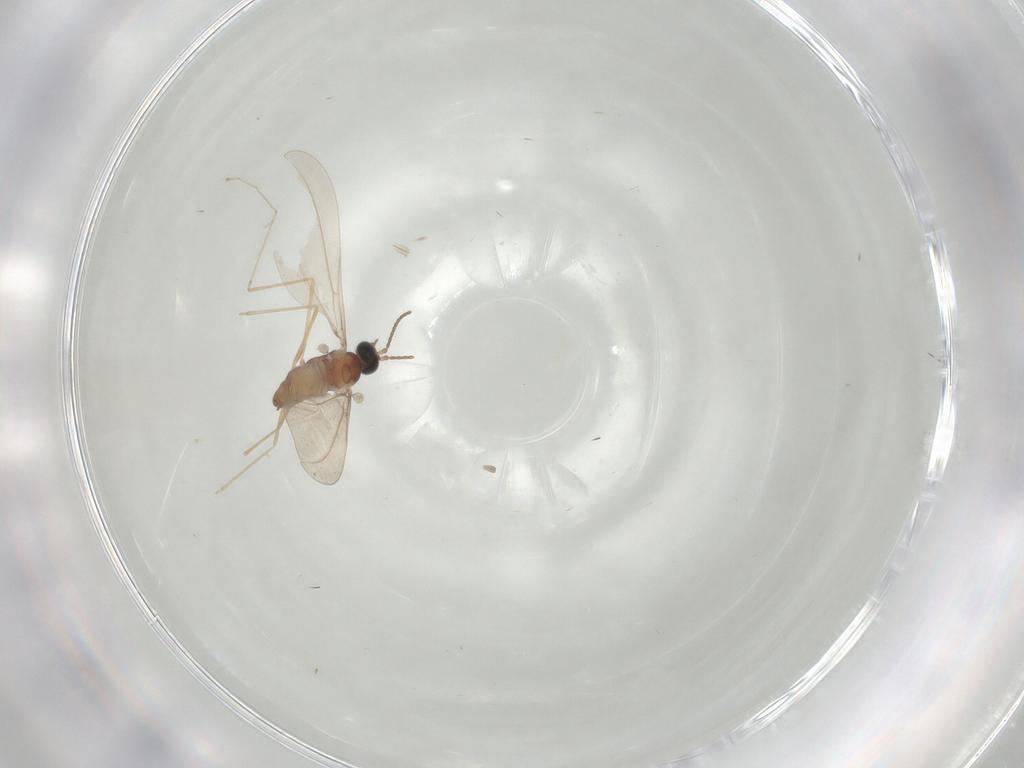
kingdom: Animalia
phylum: Arthropoda
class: Insecta
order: Diptera
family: Cecidomyiidae
